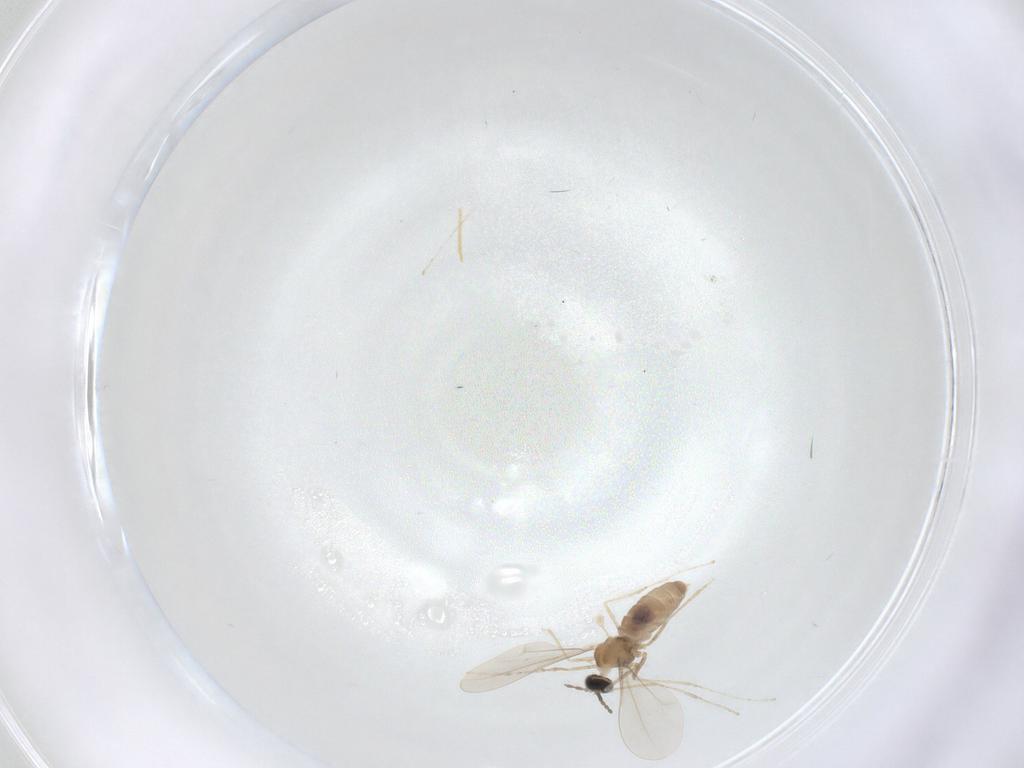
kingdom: Animalia
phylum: Arthropoda
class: Insecta
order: Diptera
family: Cecidomyiidae
